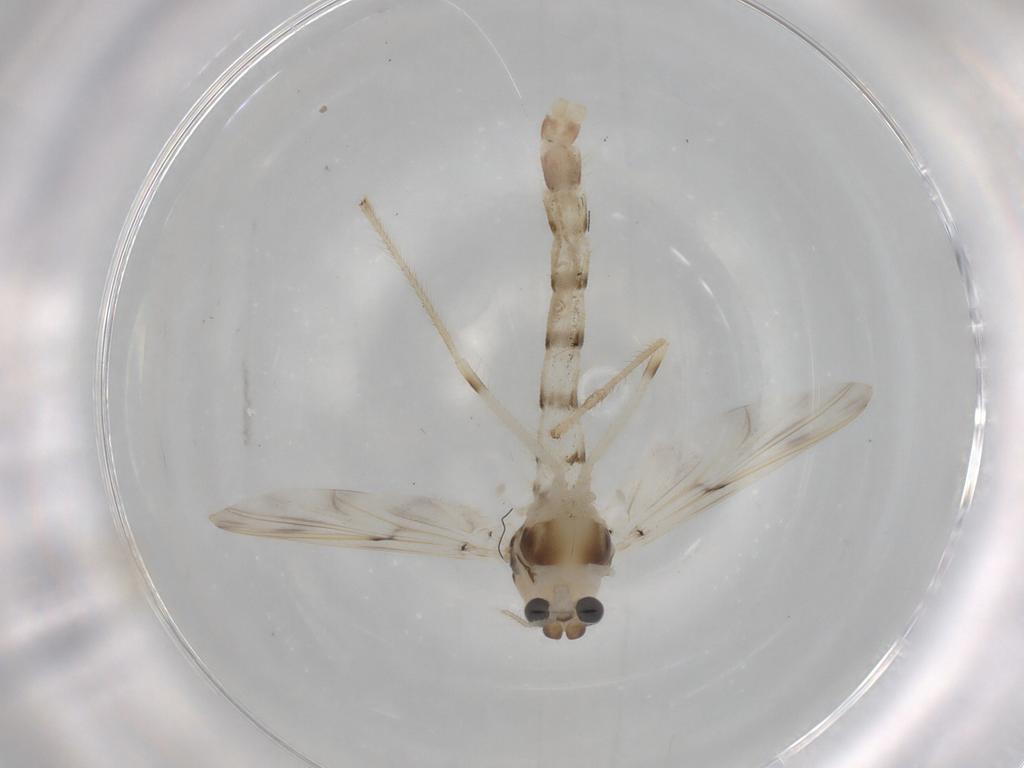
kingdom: Animalia
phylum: Arthropoda
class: Insecta
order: Diptera
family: Chironomidae
